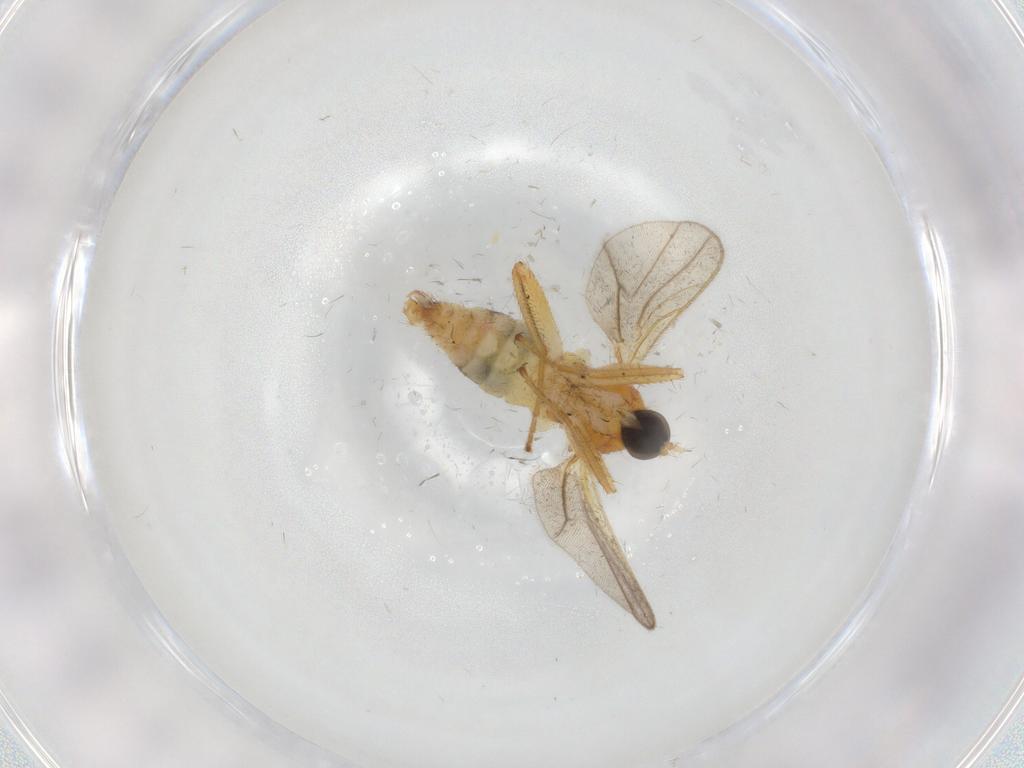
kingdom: Animalia
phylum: Arthropoda
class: Insecta
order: Diptera
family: Hybotidae
